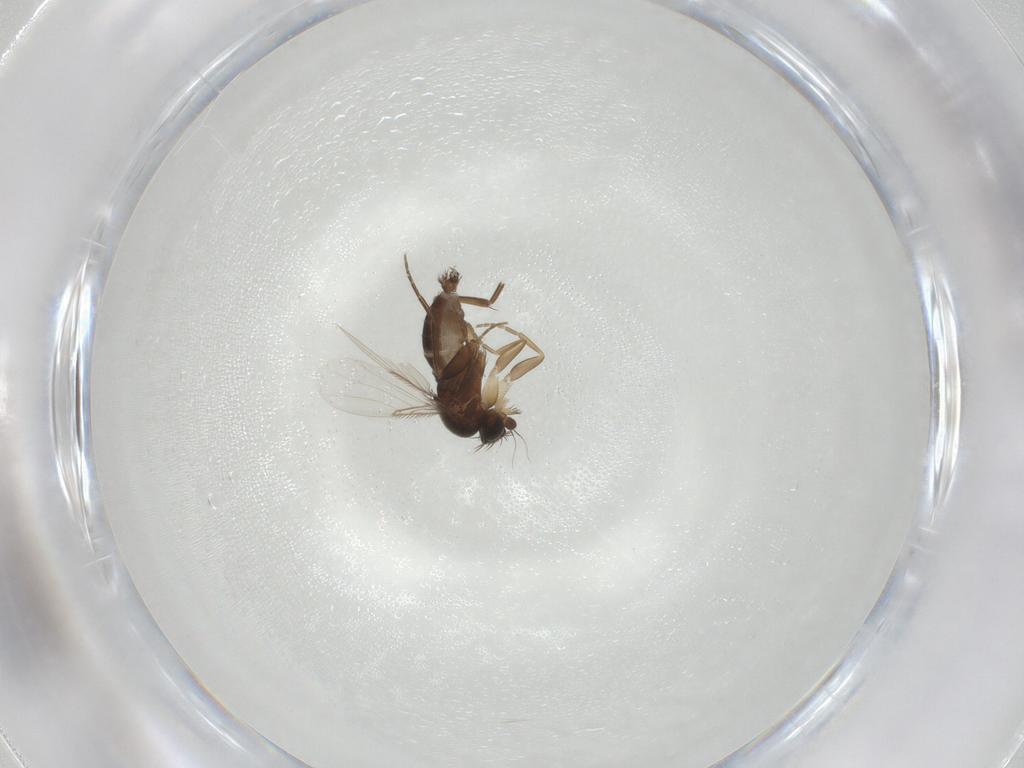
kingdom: Animalia
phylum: Arthropoda
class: Insecta
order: Diptera
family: Phoridae
